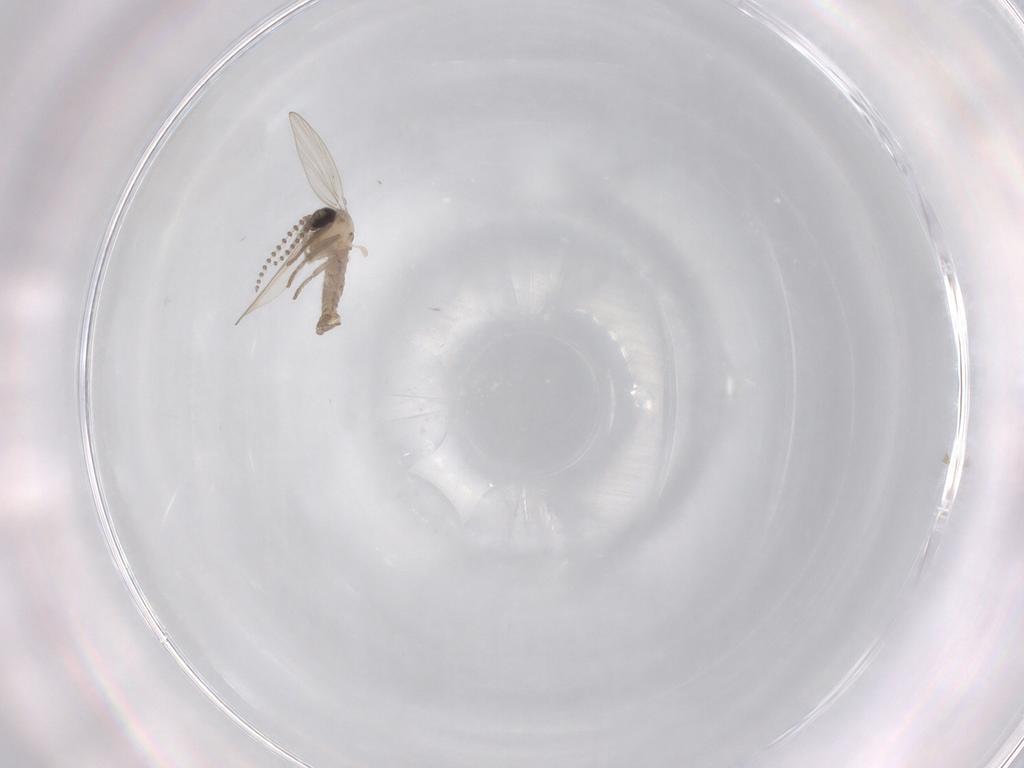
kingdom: Animalia
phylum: Arthropoda
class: Insecta
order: Diptera
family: Psychodidae
